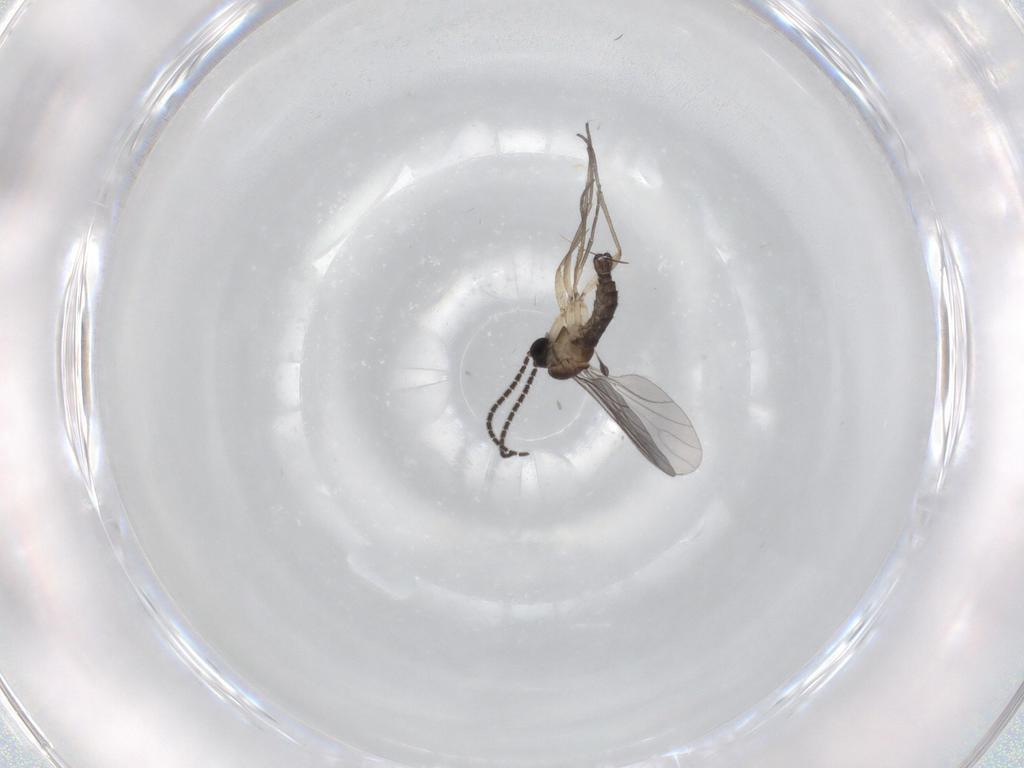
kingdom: Animalia
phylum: Arthropoda
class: Insecta
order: Diptera
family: Sciaridae
